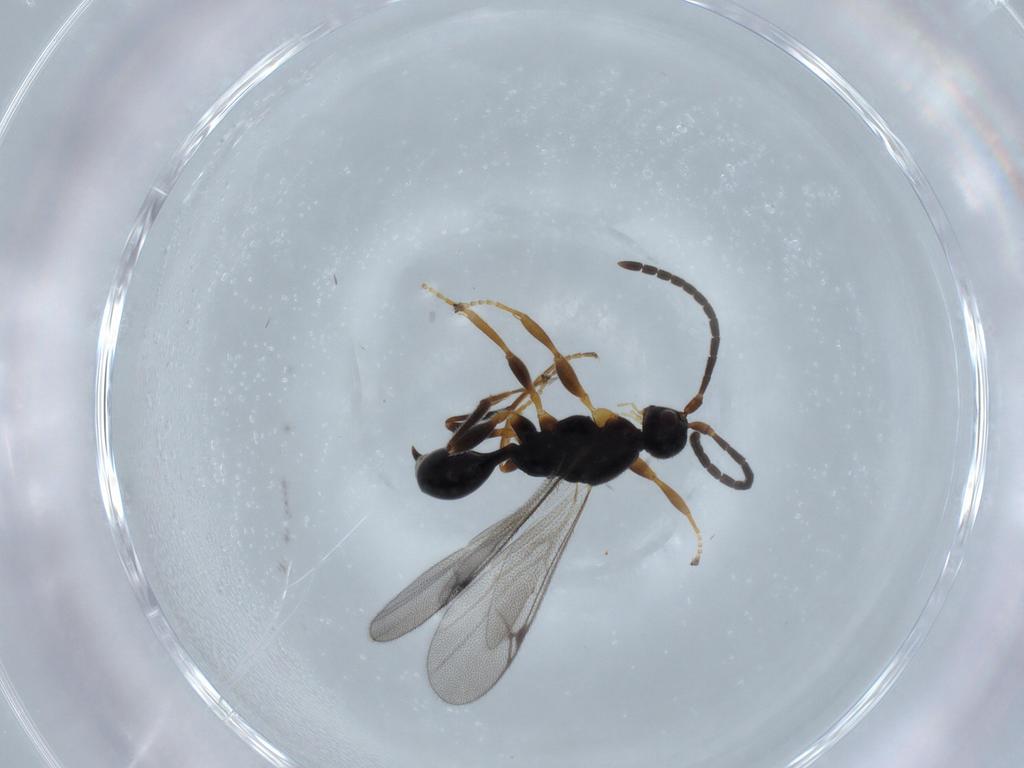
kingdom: Animalia
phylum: Arthropoda
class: Insecta
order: Hymenoptera
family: Proctotrupidae
